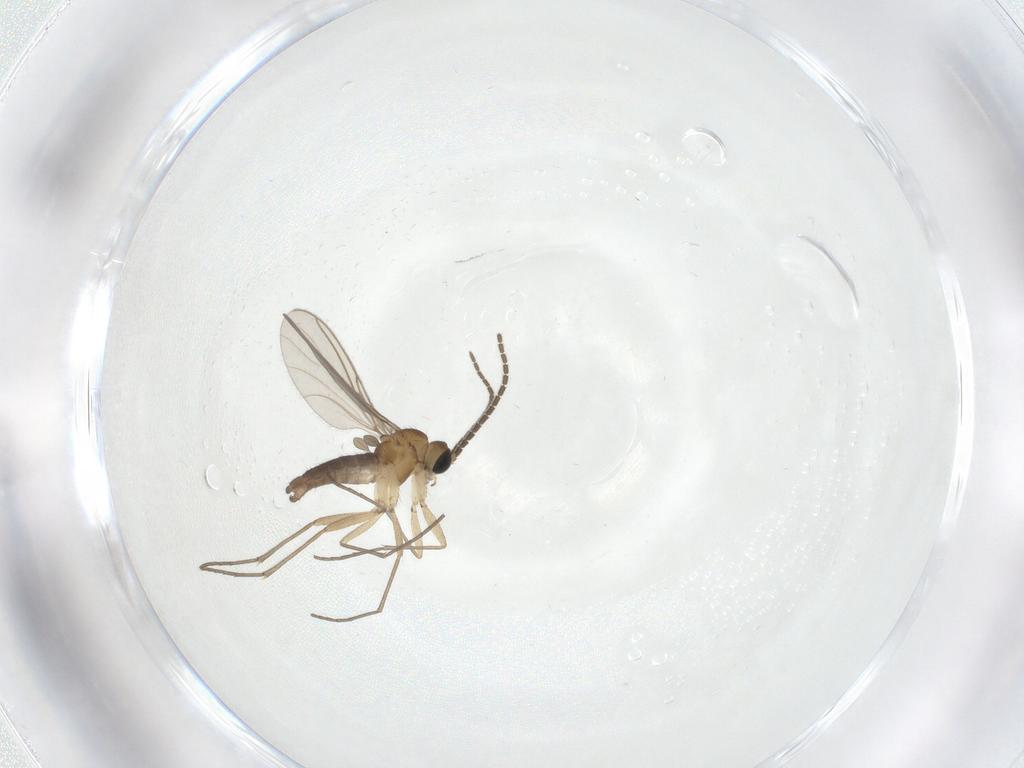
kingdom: Animalia
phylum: Arthropoda
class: Insecta
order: Diptera
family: Sciaridae
